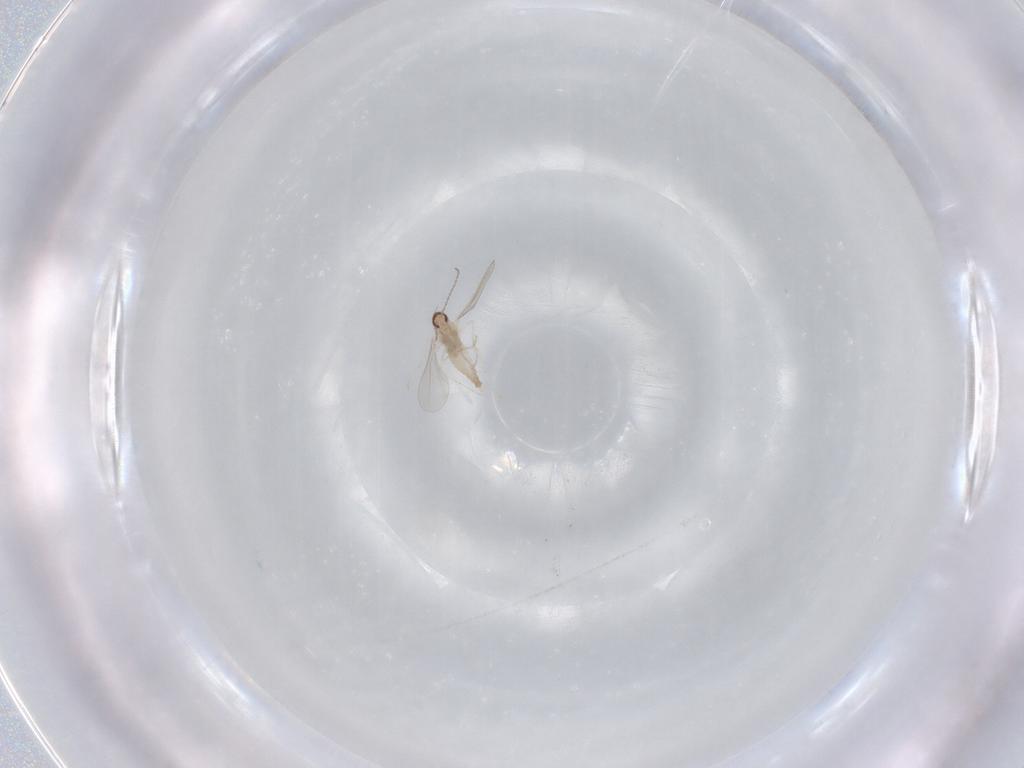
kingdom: Animalia
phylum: Arthropoda
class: Insecta
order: Diptera
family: Cecidomyiidae
